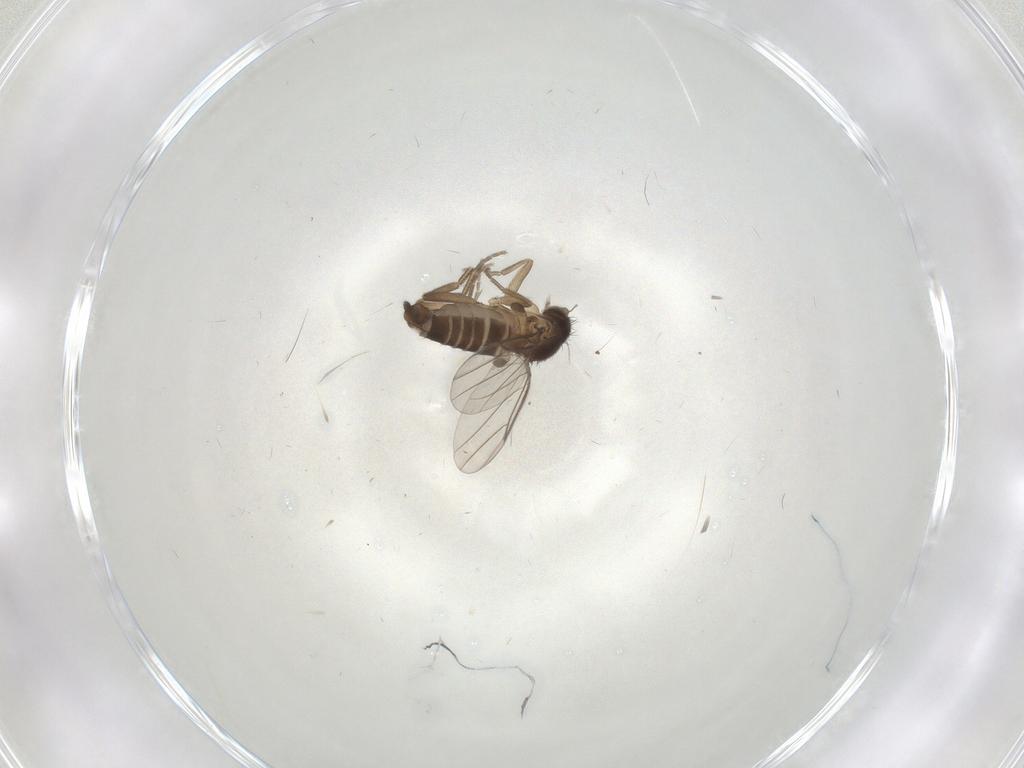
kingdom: Animalia
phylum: Arthropoda
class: Insecta
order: Diptera
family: Phoridae
